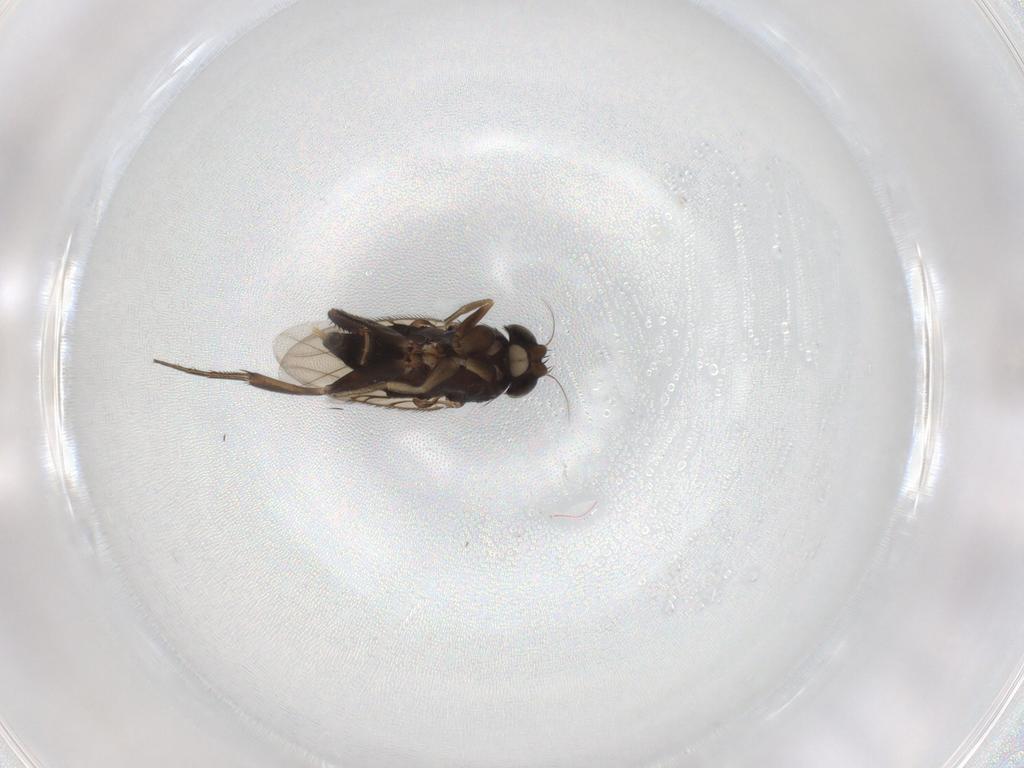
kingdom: Animalia
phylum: Arthropoda
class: Insecta
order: Diptera
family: Phoridae
